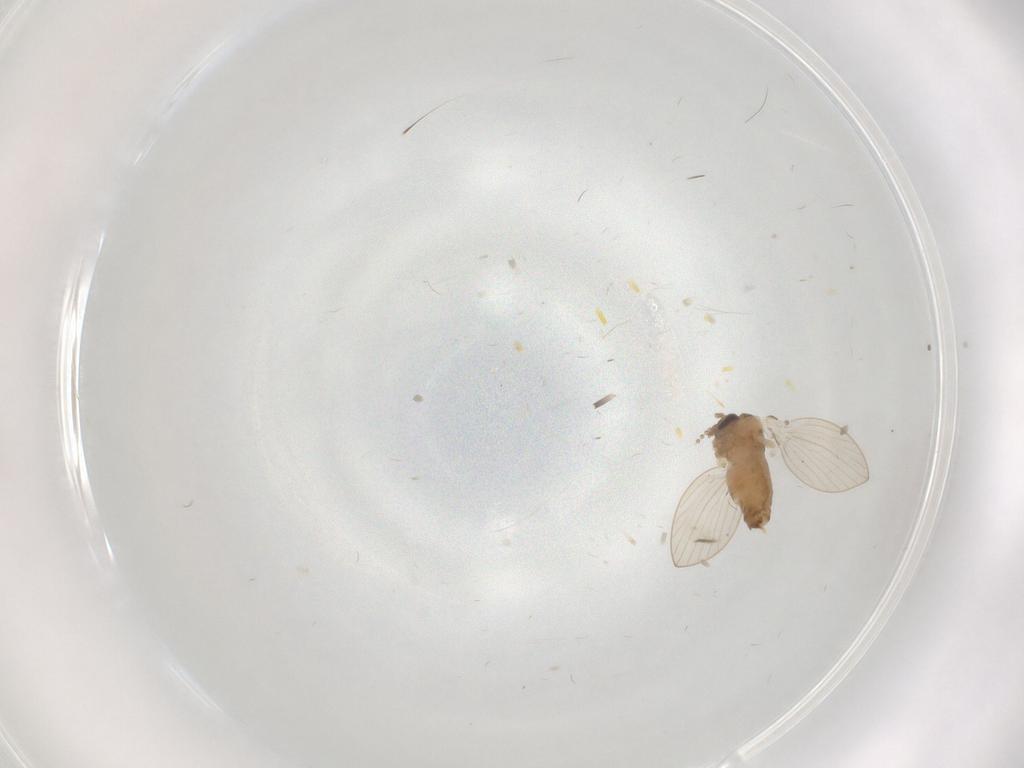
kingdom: Animalia
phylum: Arthropoda
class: Insecta
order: Diptera
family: Psychodidae
